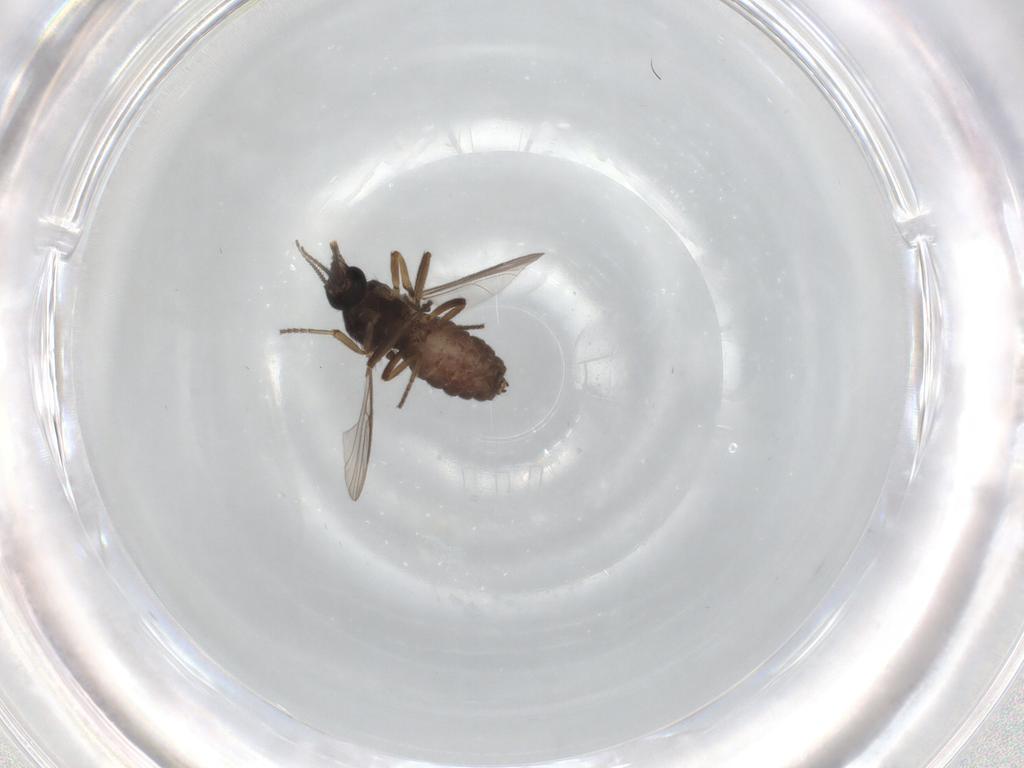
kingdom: Animalia
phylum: Arthropoda
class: Insecta
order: Diptera
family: Ceratopogonidae
